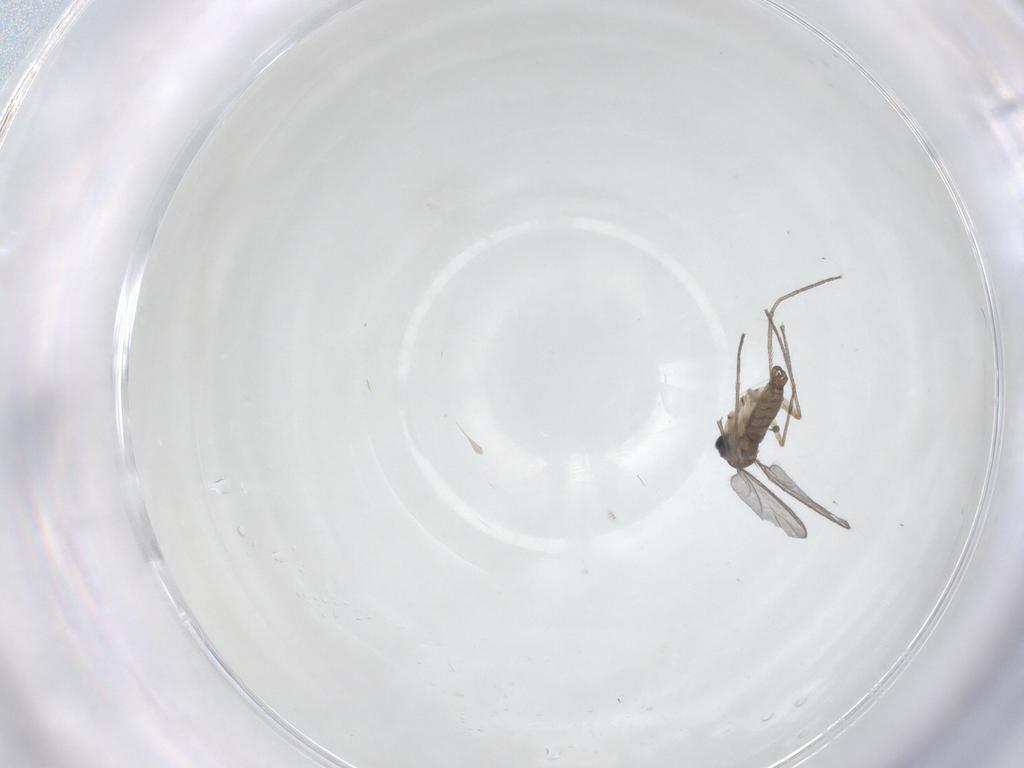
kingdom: Animalia
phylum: Arthropoda
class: Insecta
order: Diptera
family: Sciaridae
